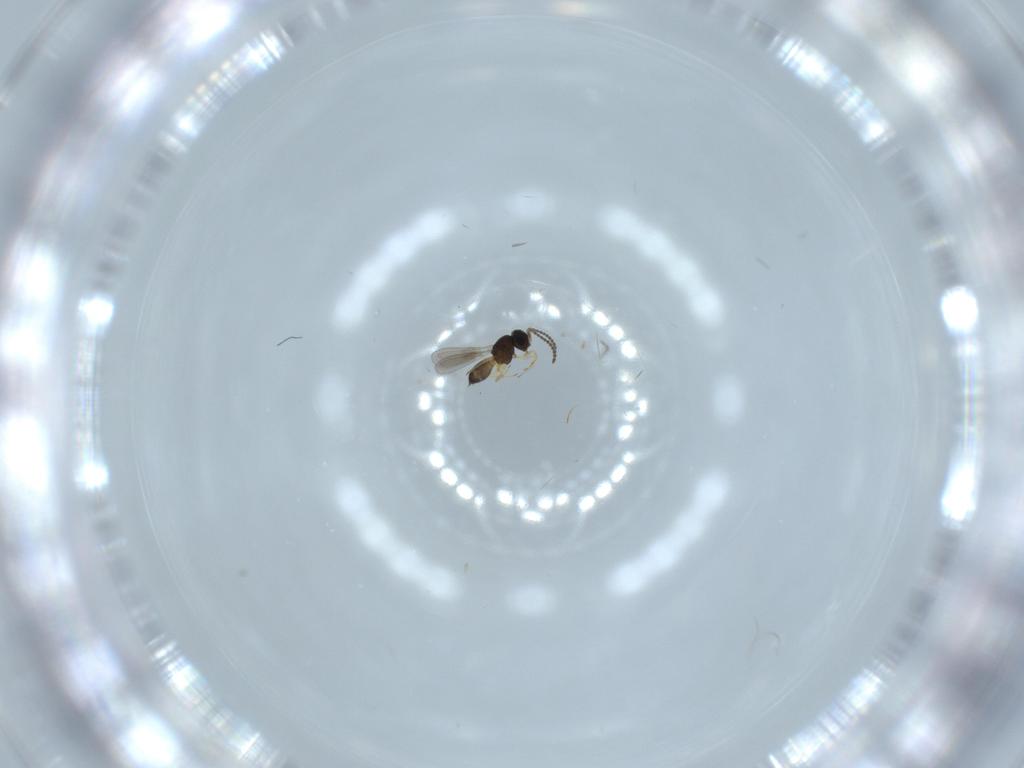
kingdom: Animalia
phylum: Arthropoda
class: Insecta
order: Hymenoptera
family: Scelionidae
